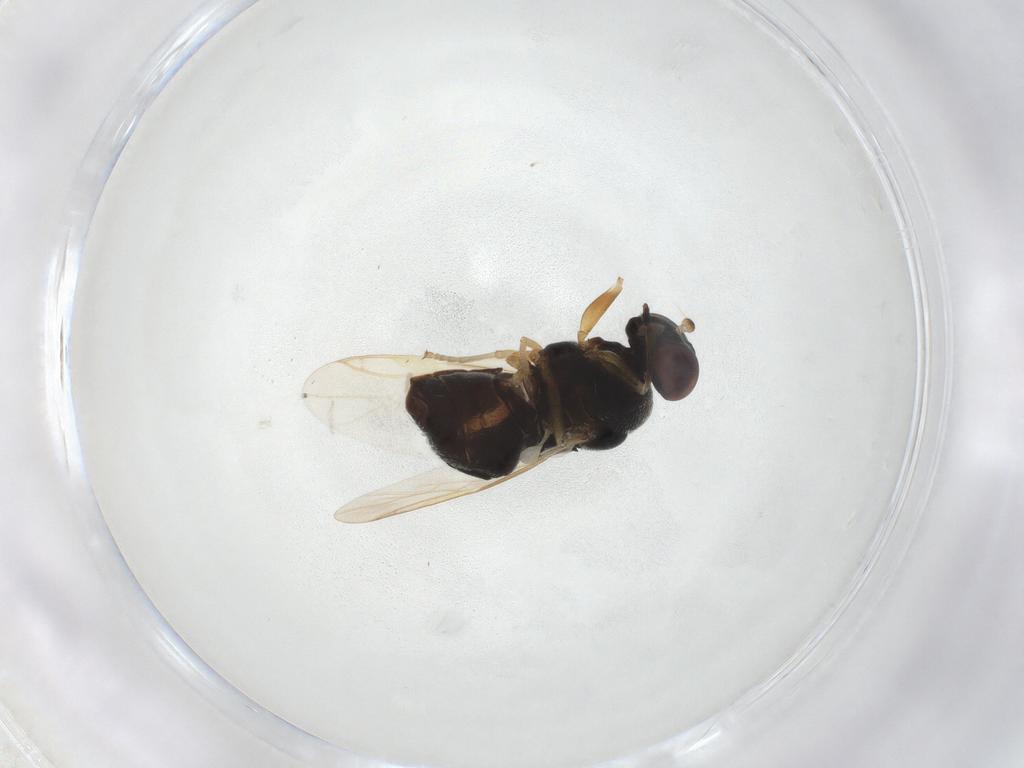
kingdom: Animalia
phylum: Arthropoda
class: Insecta
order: Diptera
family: Stratiomyidae
